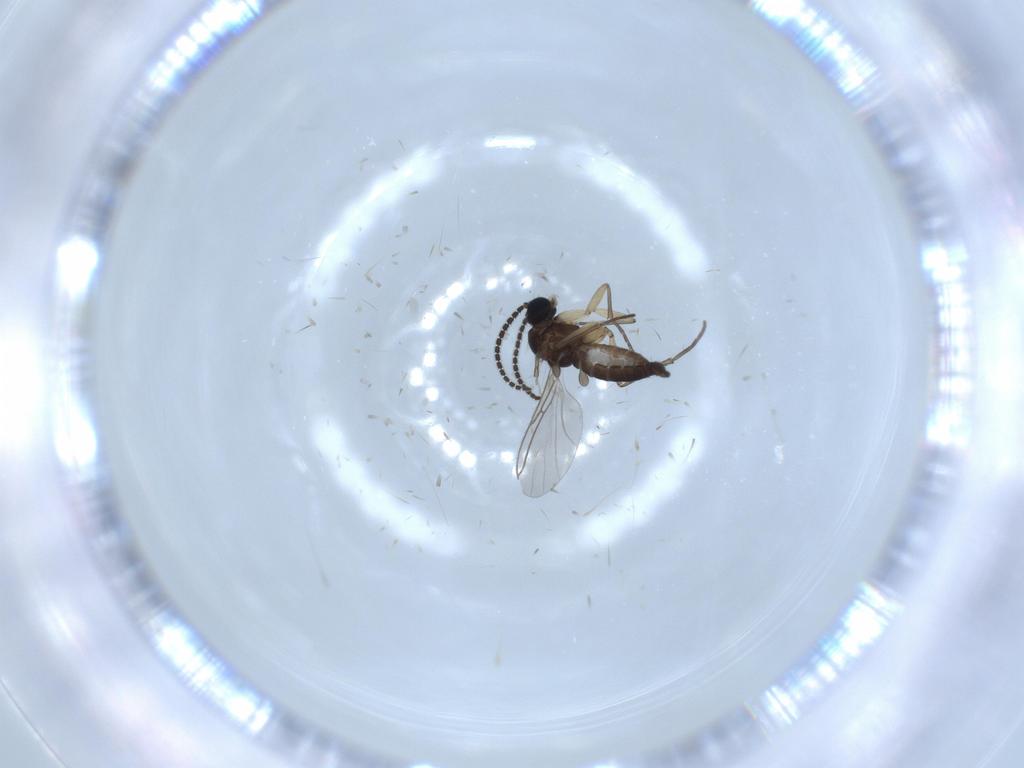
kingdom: Animalia
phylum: Arthropoda
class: Insecta
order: Diptera
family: Sciaridae
